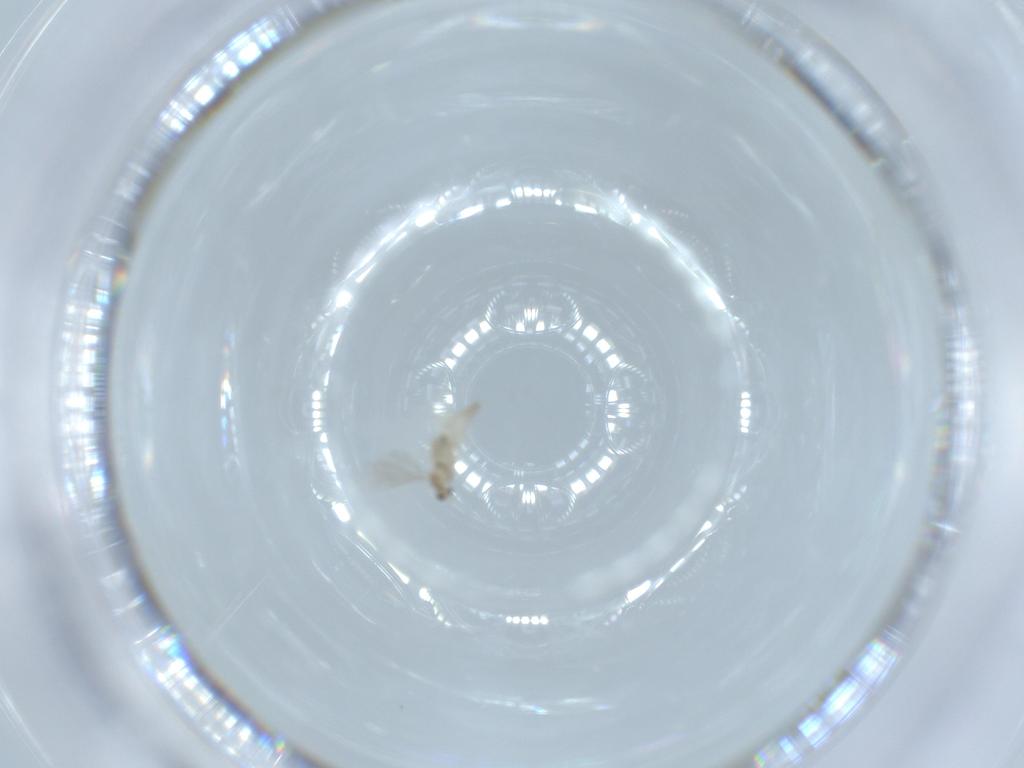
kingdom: Animalia
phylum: Arthropoda
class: Insecta
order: Diptera
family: Cecidomyiidae
